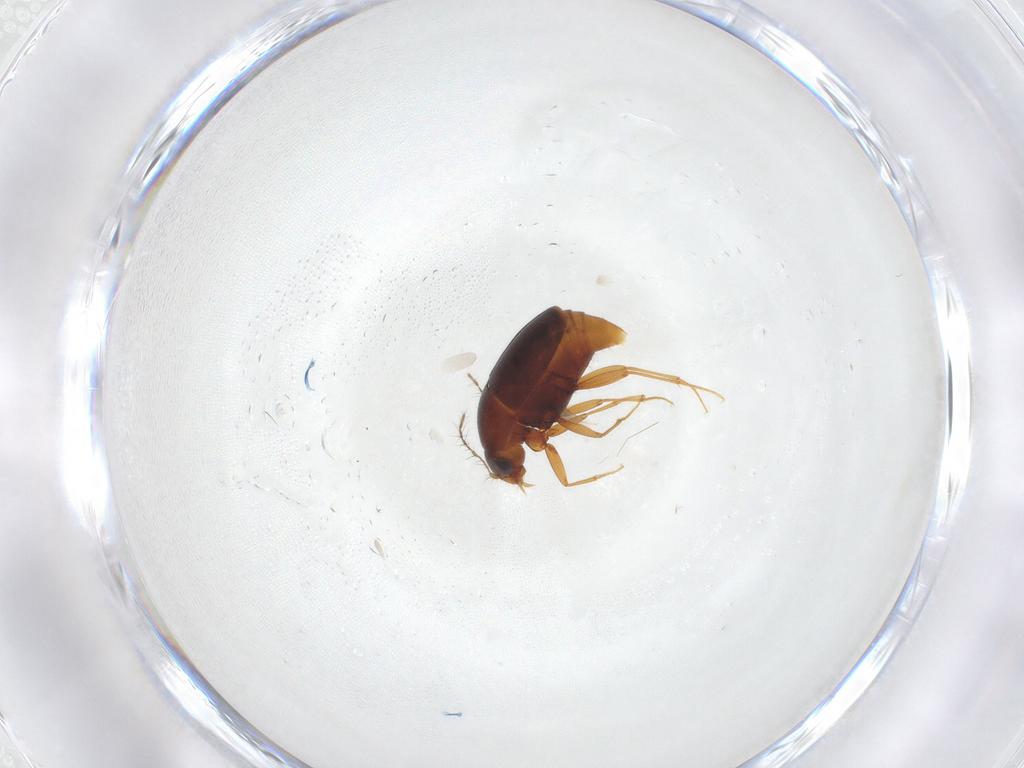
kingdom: Animalia
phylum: Arthropoda
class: Insecta
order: Coleoptera
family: Staphylinidae
